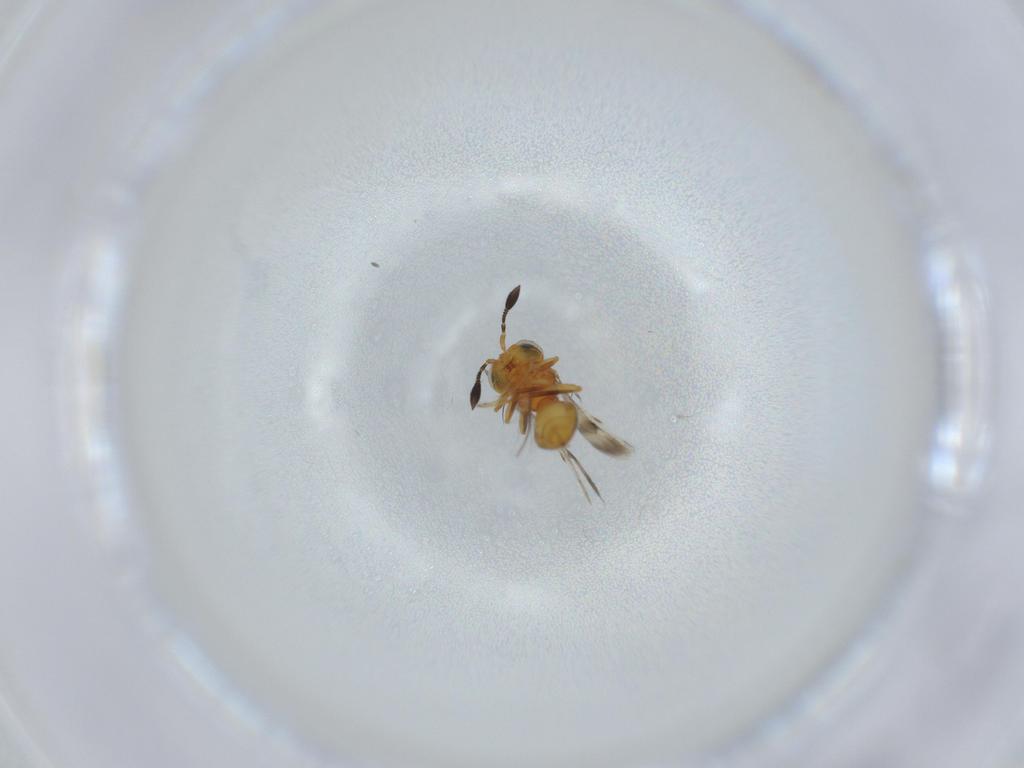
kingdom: Animalia
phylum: Arthropoda
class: Insecta
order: Hymenoptera
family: Scelionidae
